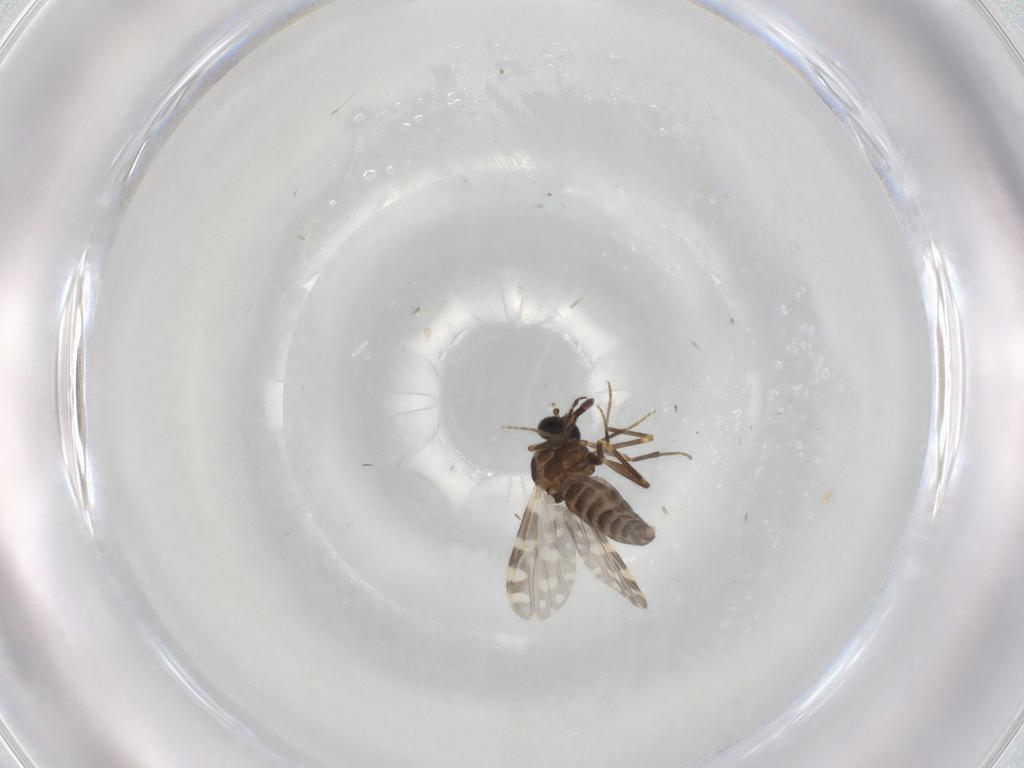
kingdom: Animalia
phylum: Arthropoda
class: Insecta
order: Diptera
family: Ceratopogonidae
